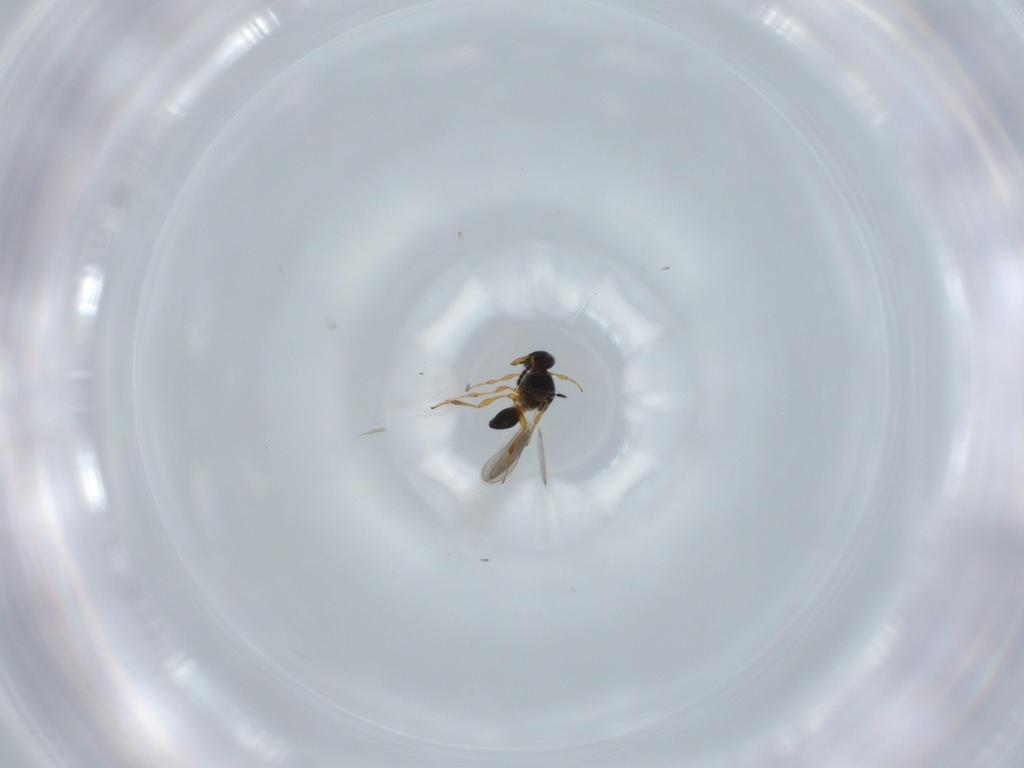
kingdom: Animalia
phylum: Arthropoda
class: Insecta
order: Hymenoptera
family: Platygastridae
